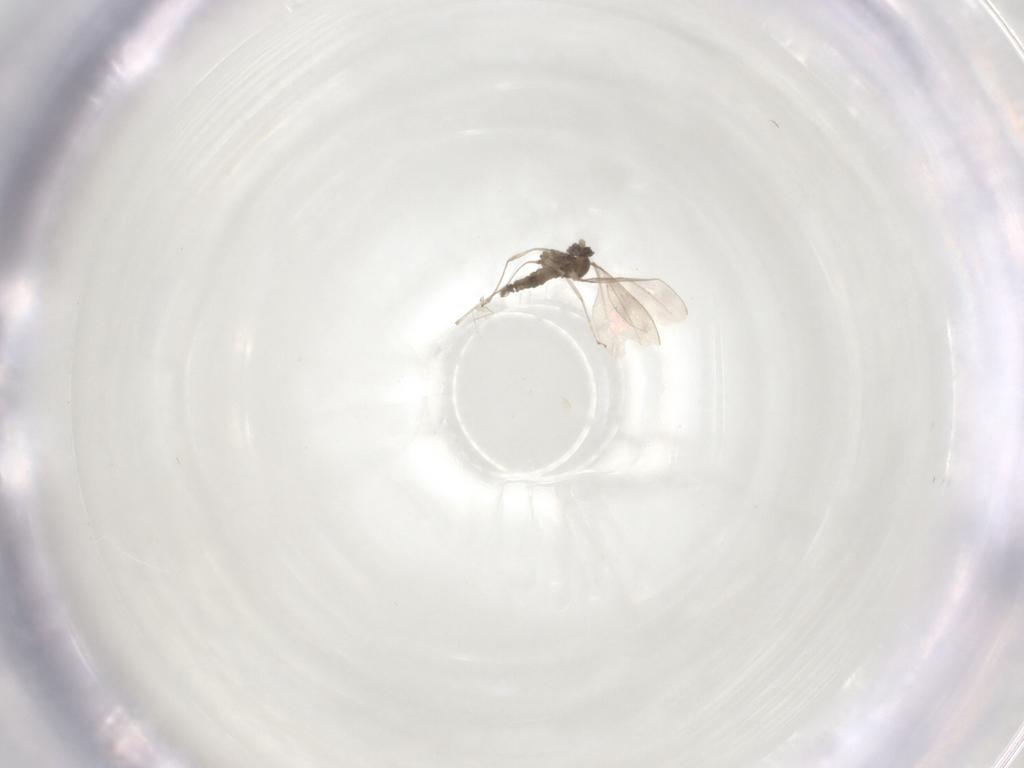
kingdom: Animalia
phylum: Arthropoda
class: Insecta
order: Diptera
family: Cecidomyiidae
